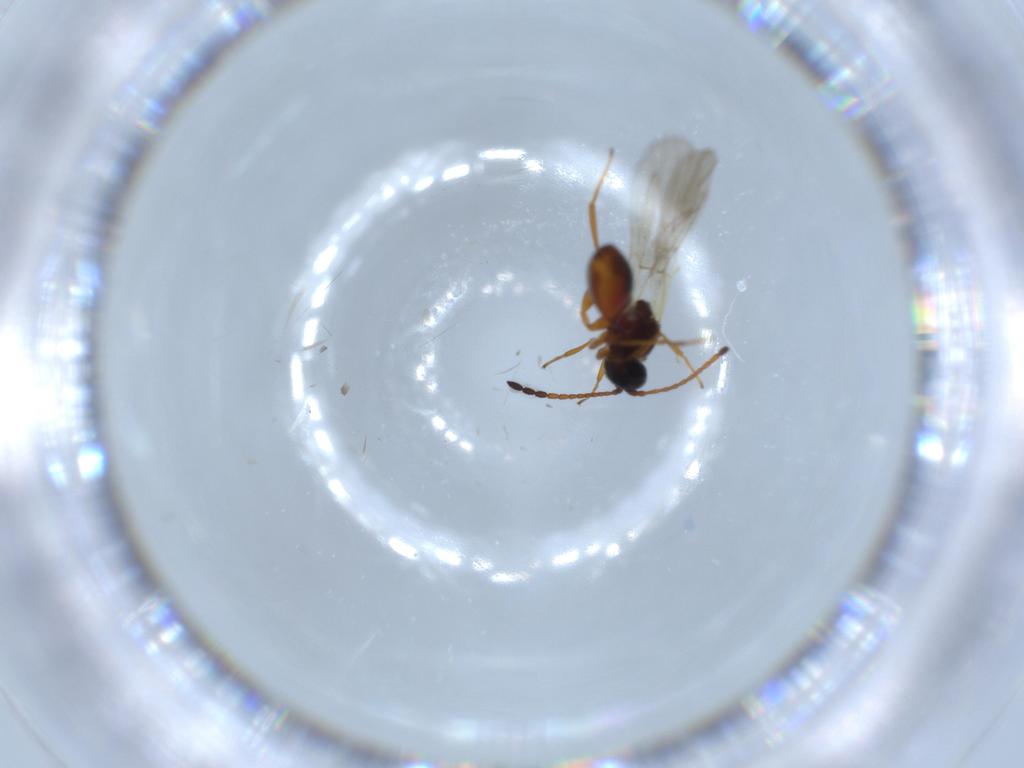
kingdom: Animalia
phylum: Arthropoda
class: Insecta
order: Hymenoptera
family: Figitidae
